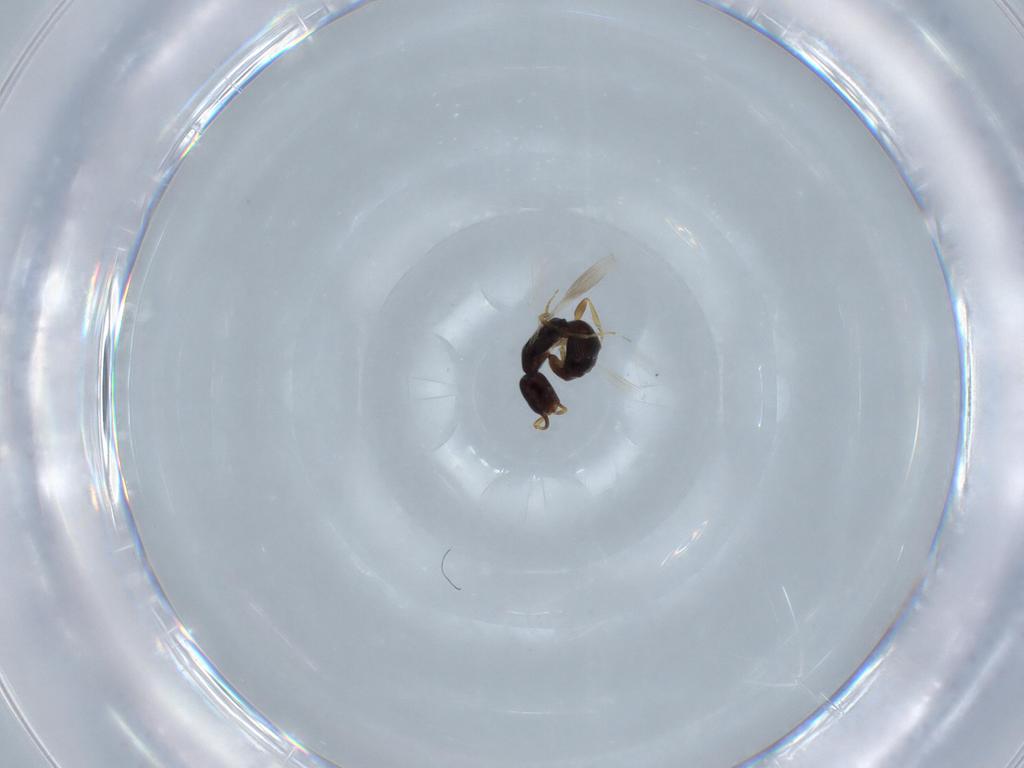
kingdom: Animalia
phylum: Arthropoda
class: Insecta
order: Hymenoptera
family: Bethylidae
